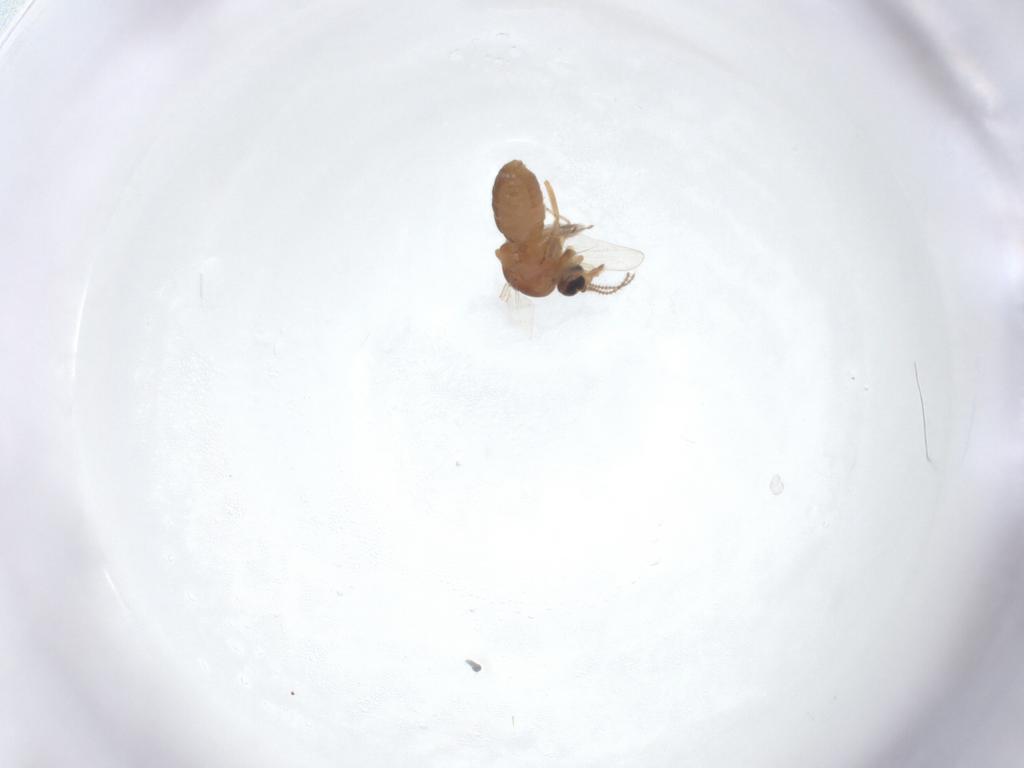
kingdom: Animalia
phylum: Arthropoda
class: Insecta
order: Diptera
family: Ceratopogonidae
